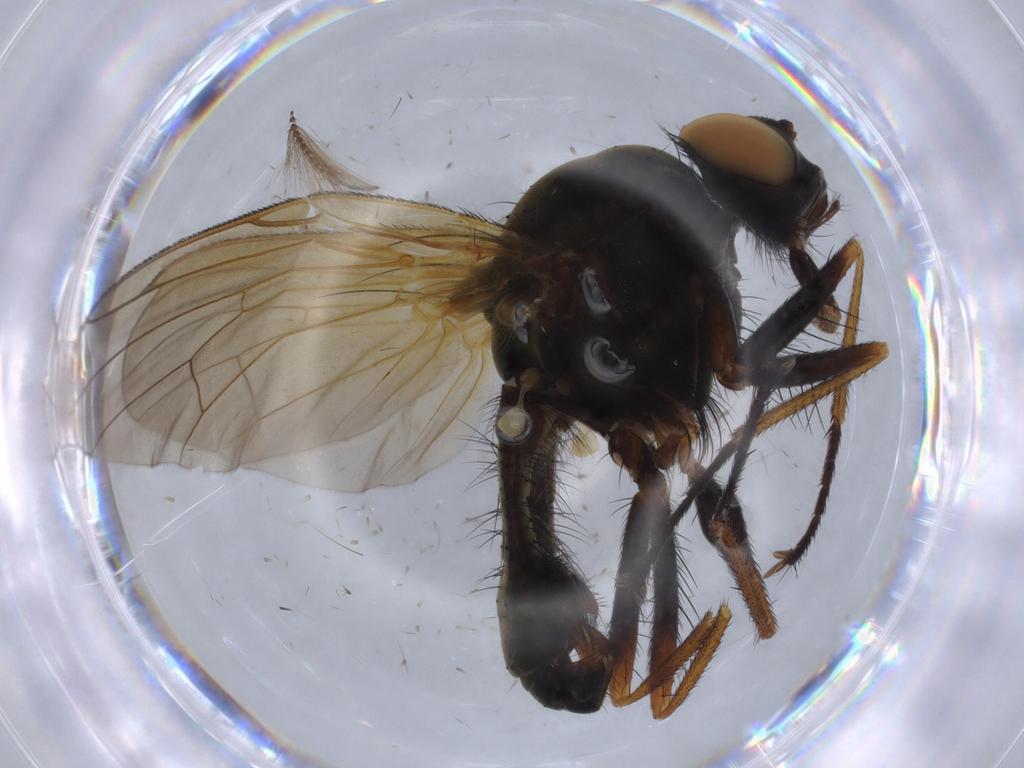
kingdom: Animalia
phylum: Arthropoda
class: Insecta
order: Diptera
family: Anthomyiidae
